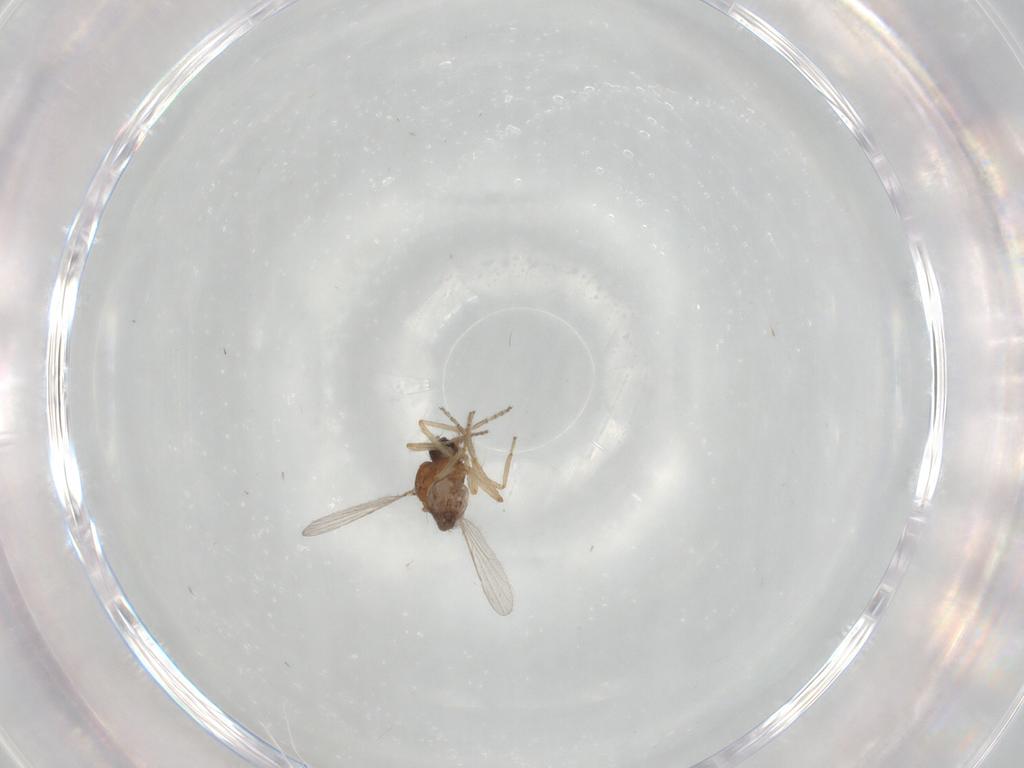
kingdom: Animalia
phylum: Arthropoda
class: Insecta
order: Diptera
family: Ceratopogonidae
